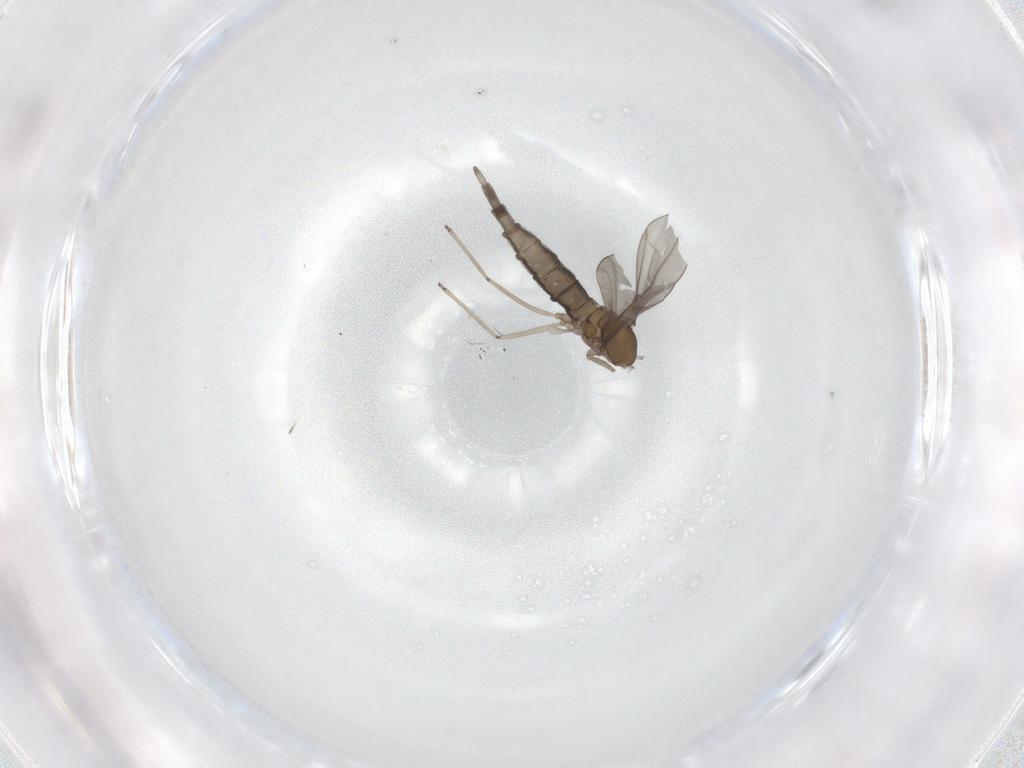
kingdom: Animalia
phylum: Arthropoda
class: Insecta
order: Diptera
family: Cecidomyiidae
